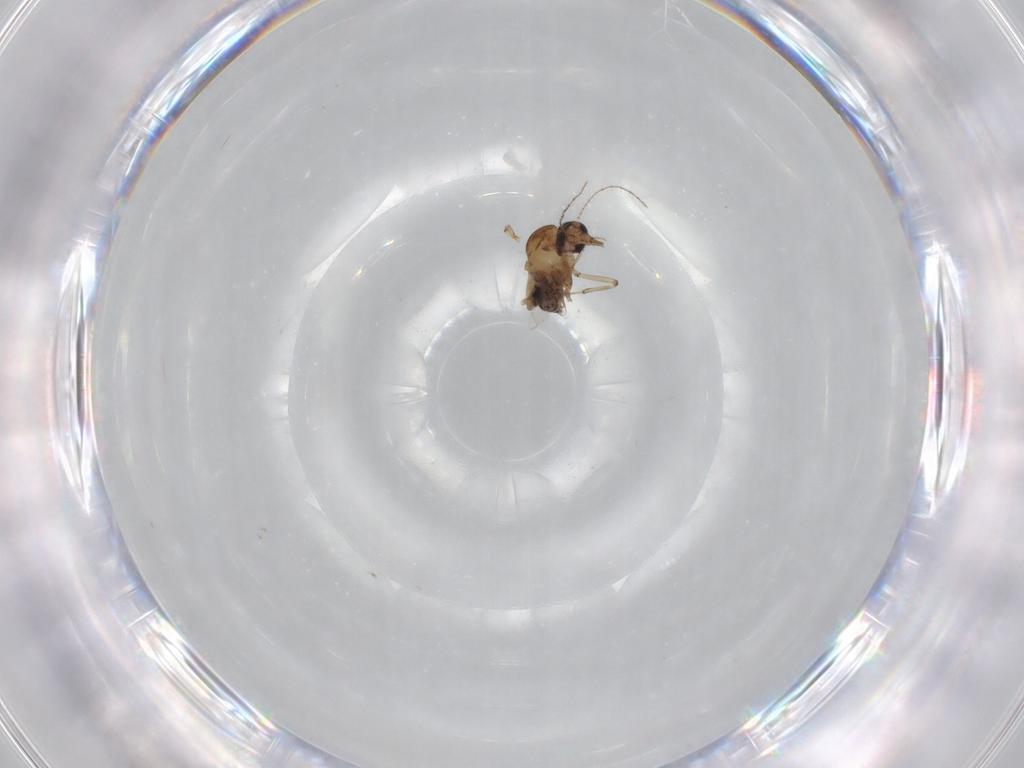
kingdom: Animalia
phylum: Arthropoda
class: Insecta
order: Diptera
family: Ceratopogonidae
